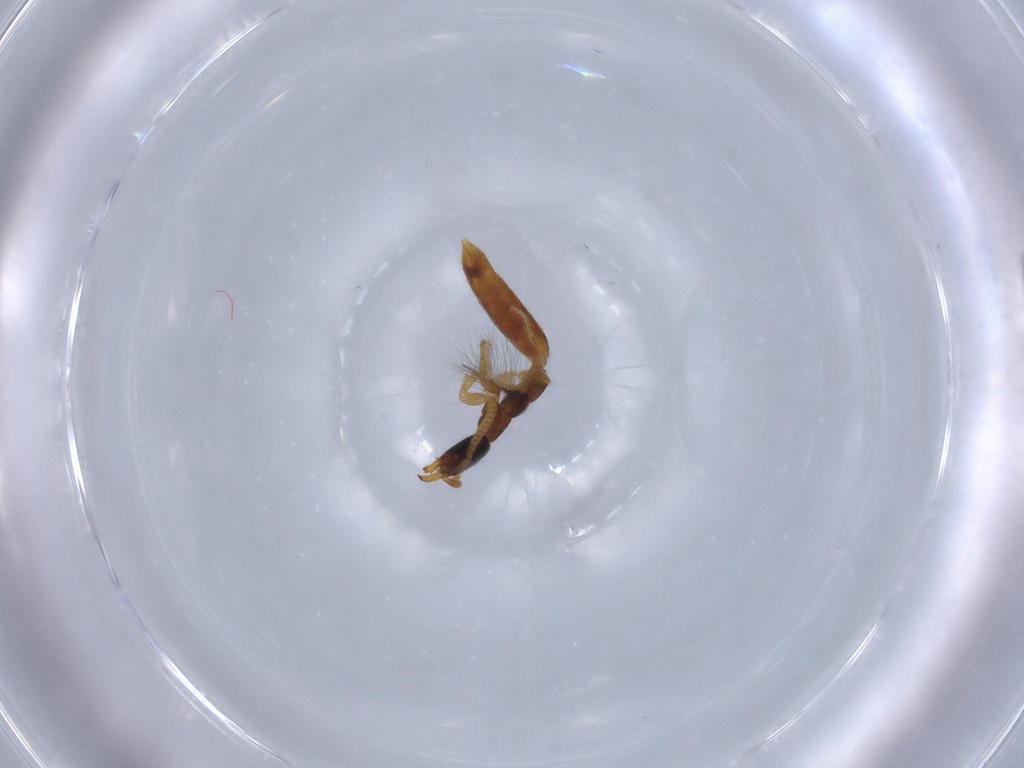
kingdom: Animalia
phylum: Arthropoda
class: Insecta
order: Hymenoptera
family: Bethylidae
